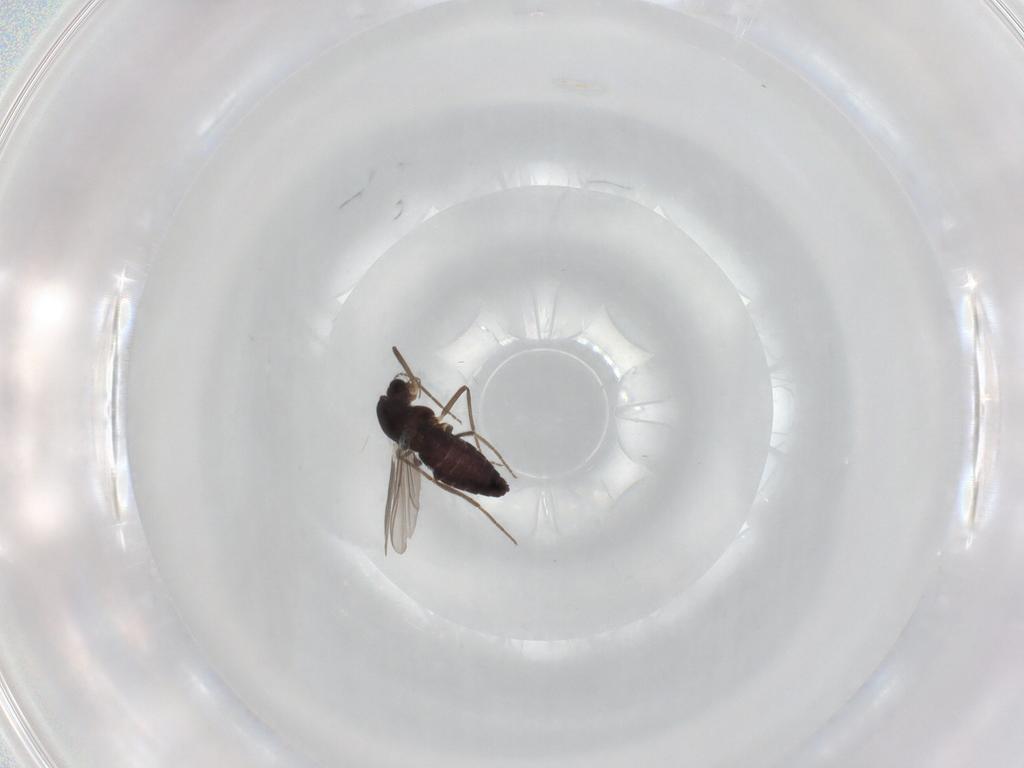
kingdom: Animalia
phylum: Arthropoda
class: Insecta
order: Diptera
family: Chironomidae
